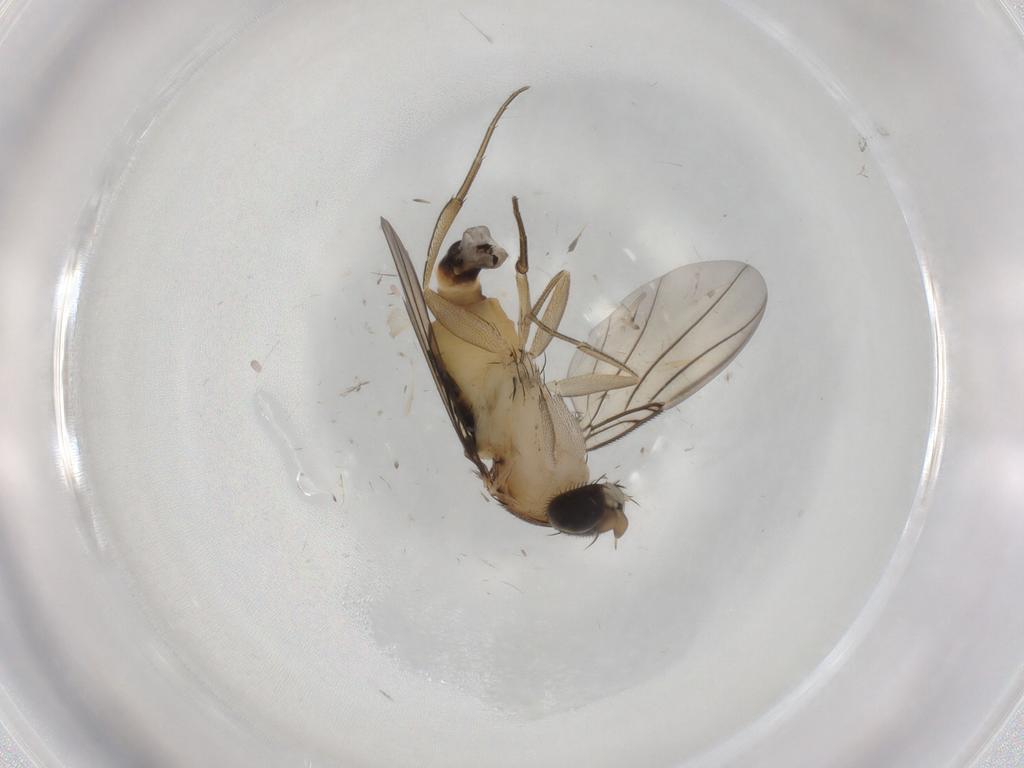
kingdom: Animalia
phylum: Arthropoda
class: Insecta
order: Diptera
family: Phoridae
